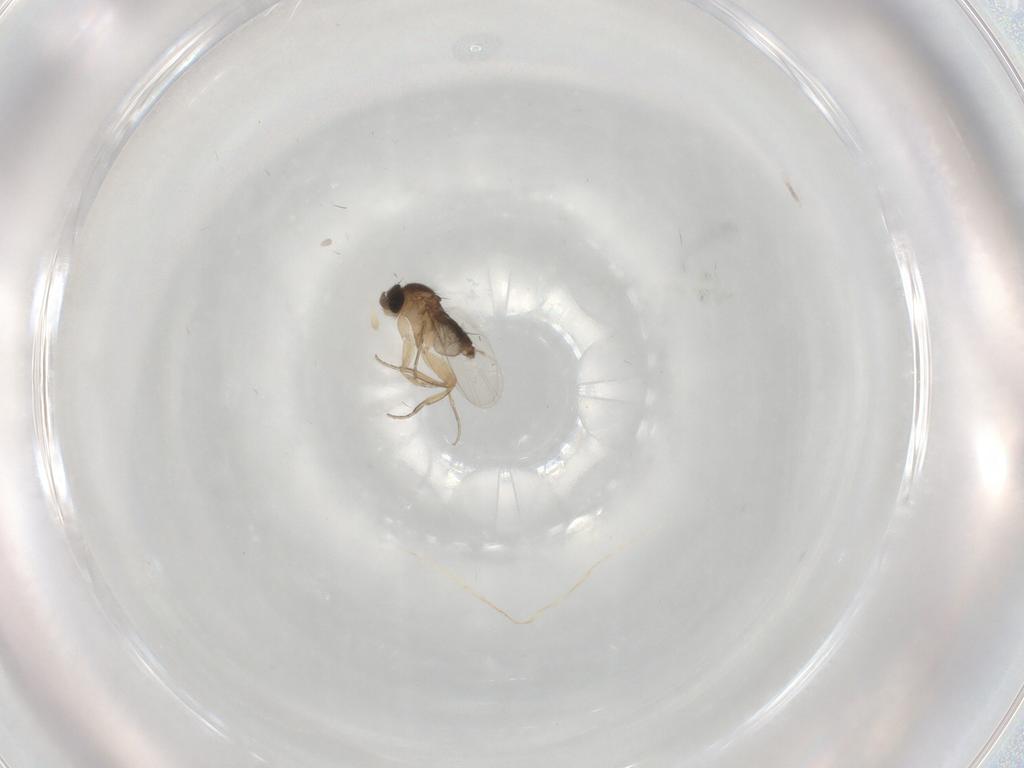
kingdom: Animalia
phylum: Arthropoda
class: Insecta
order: Diptera
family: Phoridae
